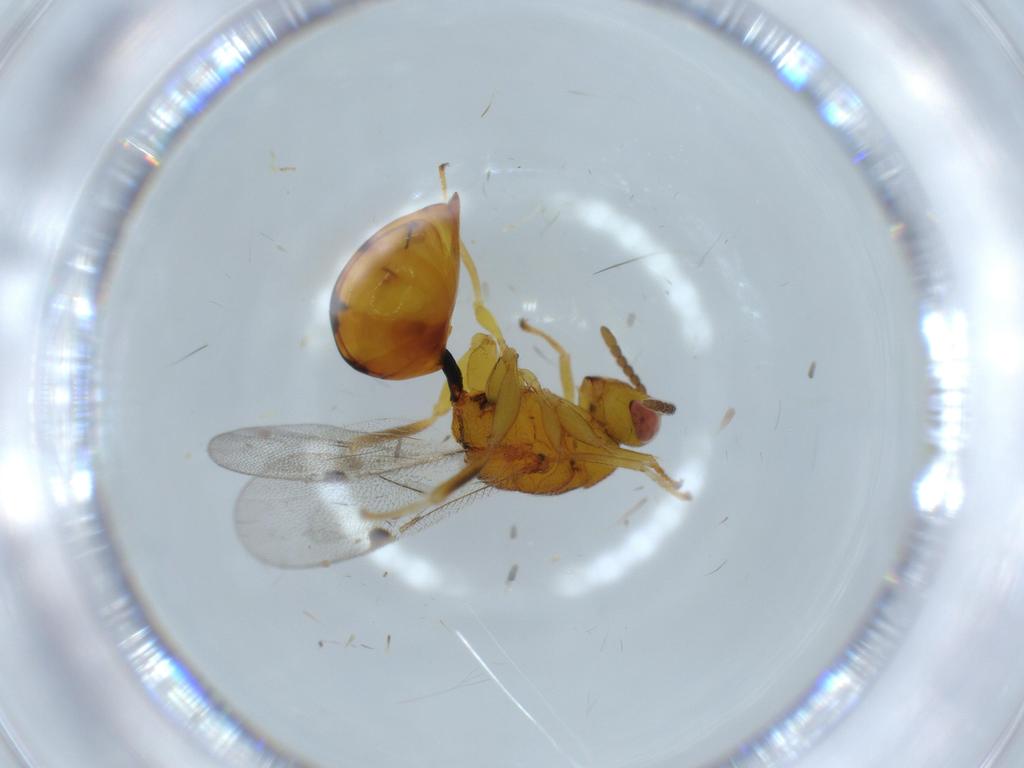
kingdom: Animalia
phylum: Arthropoda
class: Insecta
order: Hymenoptera
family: Eurytomidae
